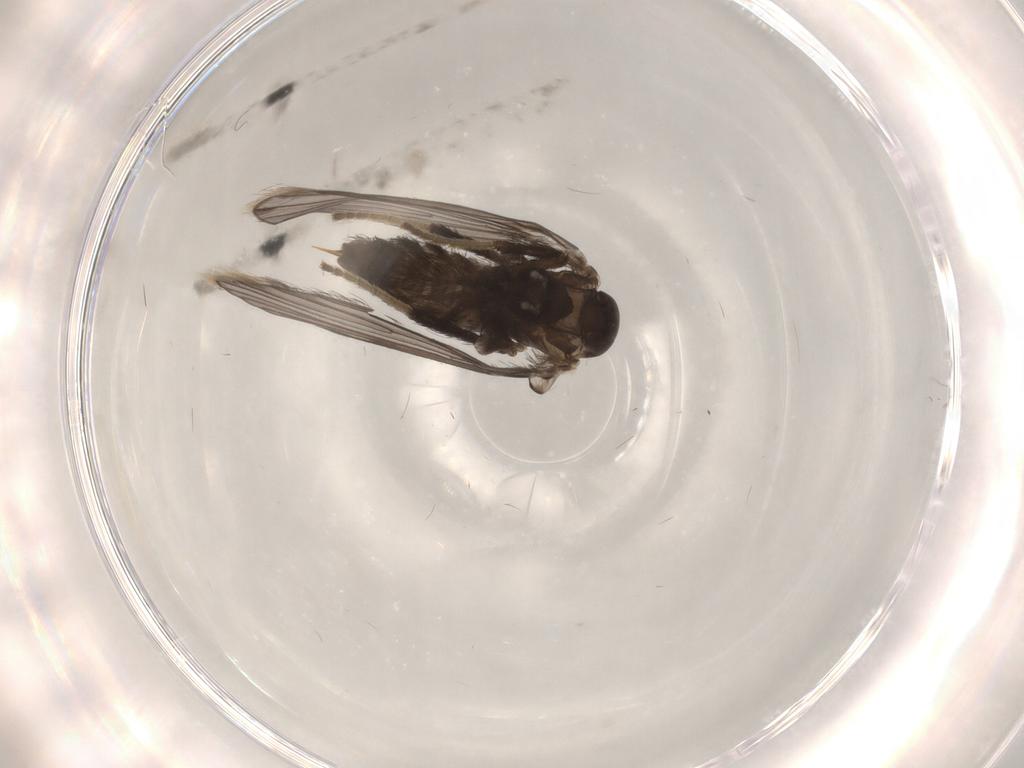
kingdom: Animalia
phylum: Arthropoda
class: Insecta
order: Diptera
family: Psychodidae
